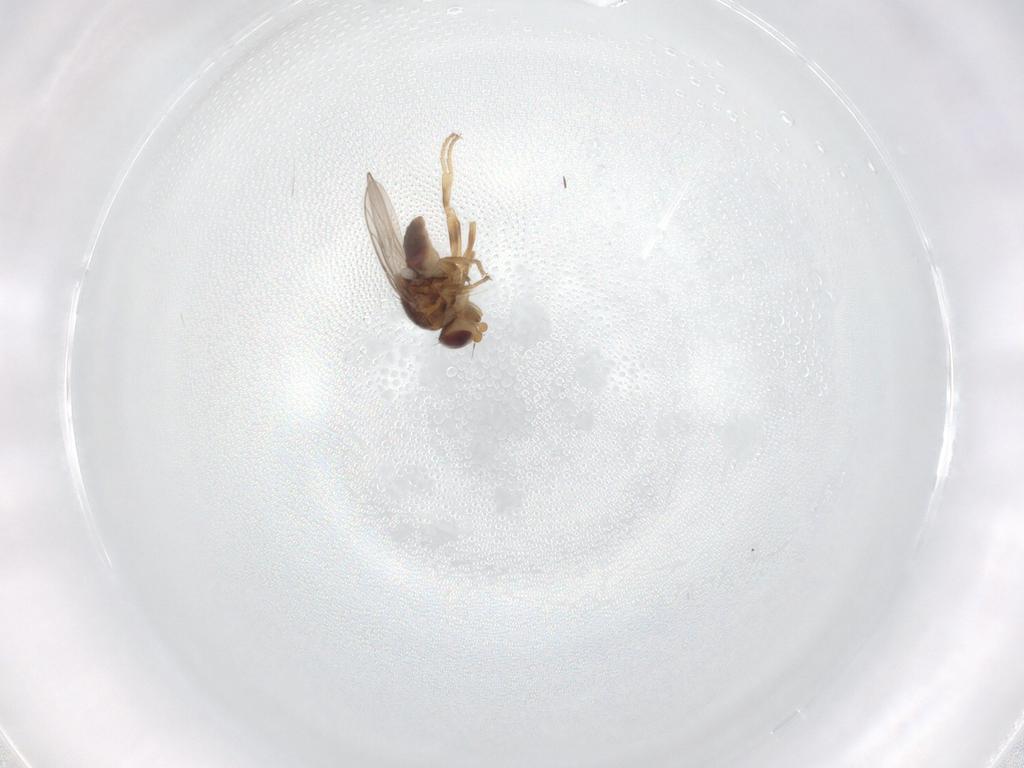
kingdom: Animalia
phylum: Arthropoda
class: Insecta
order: Diptera
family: Chloropidae
